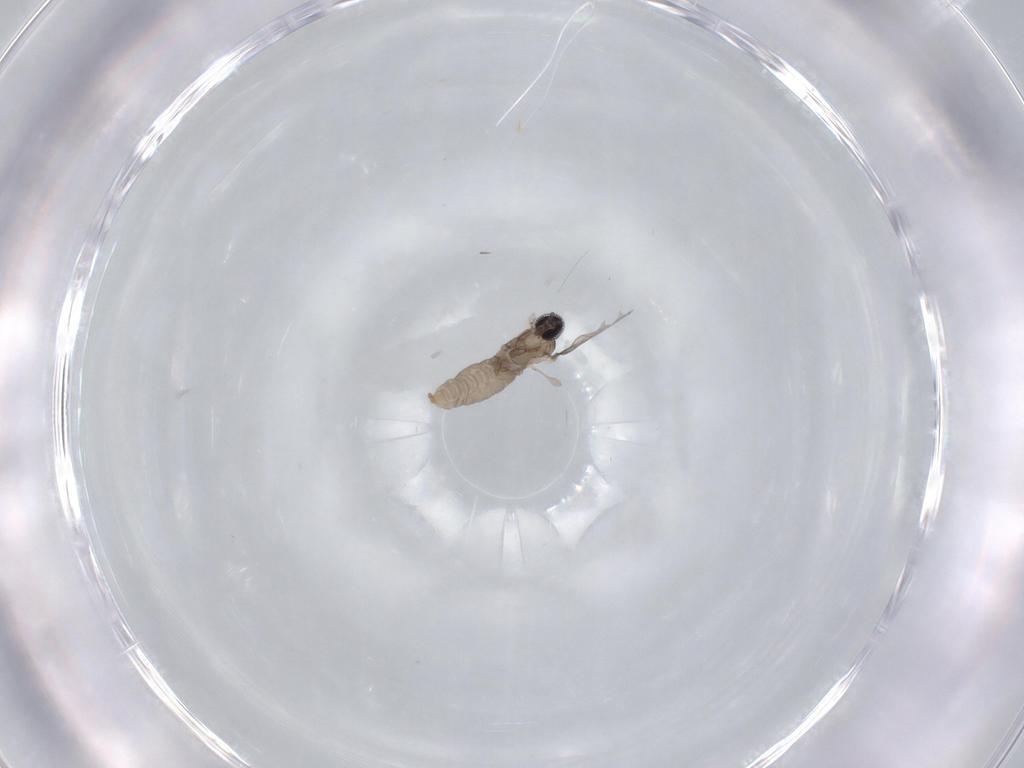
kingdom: Animalia
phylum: Arthropoda
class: Insecta
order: Diptera
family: Cecidomyiidae
